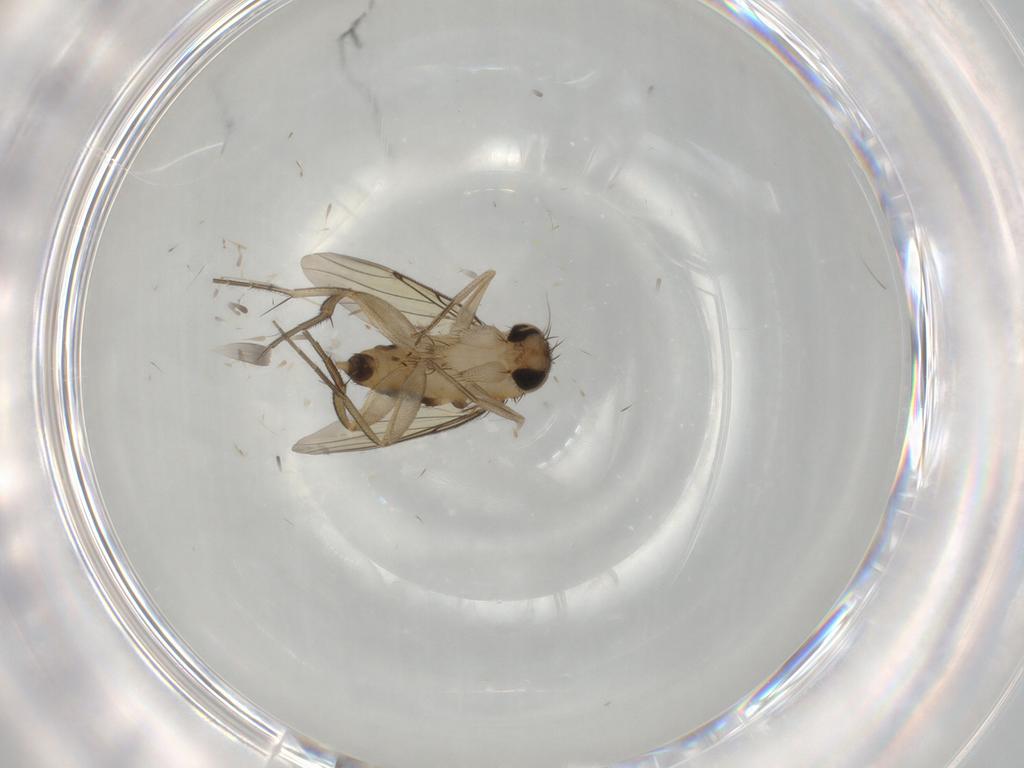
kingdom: Animalia
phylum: Arthropoda
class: Insecta
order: Diptera
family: Phoridae
